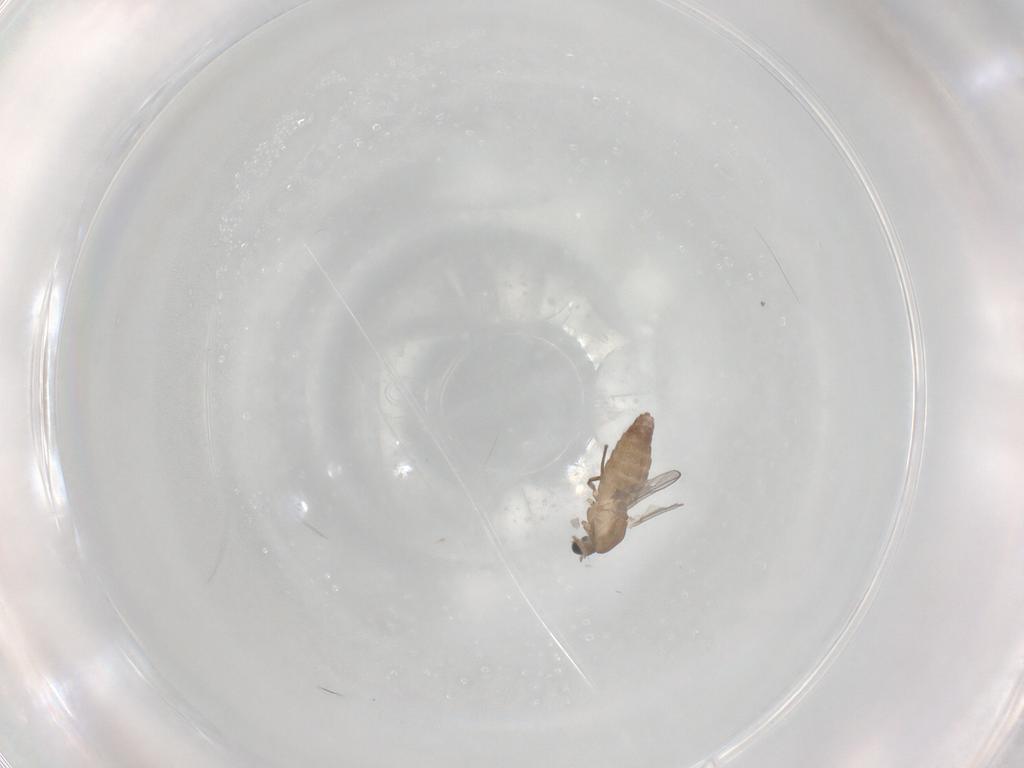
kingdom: Animalia
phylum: Arthropoda
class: Insecta
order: Diptera
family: Chironomidae
